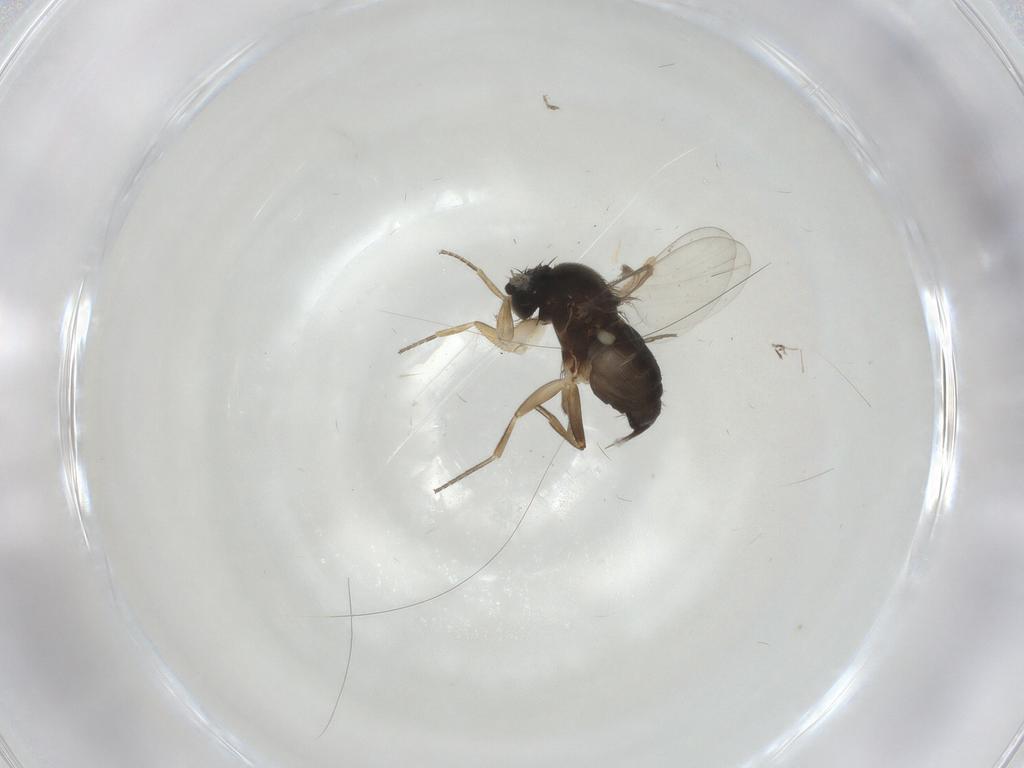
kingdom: Animalia
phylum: Arthropoda
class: Insecta
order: Diptera
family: Mycetophilidae
